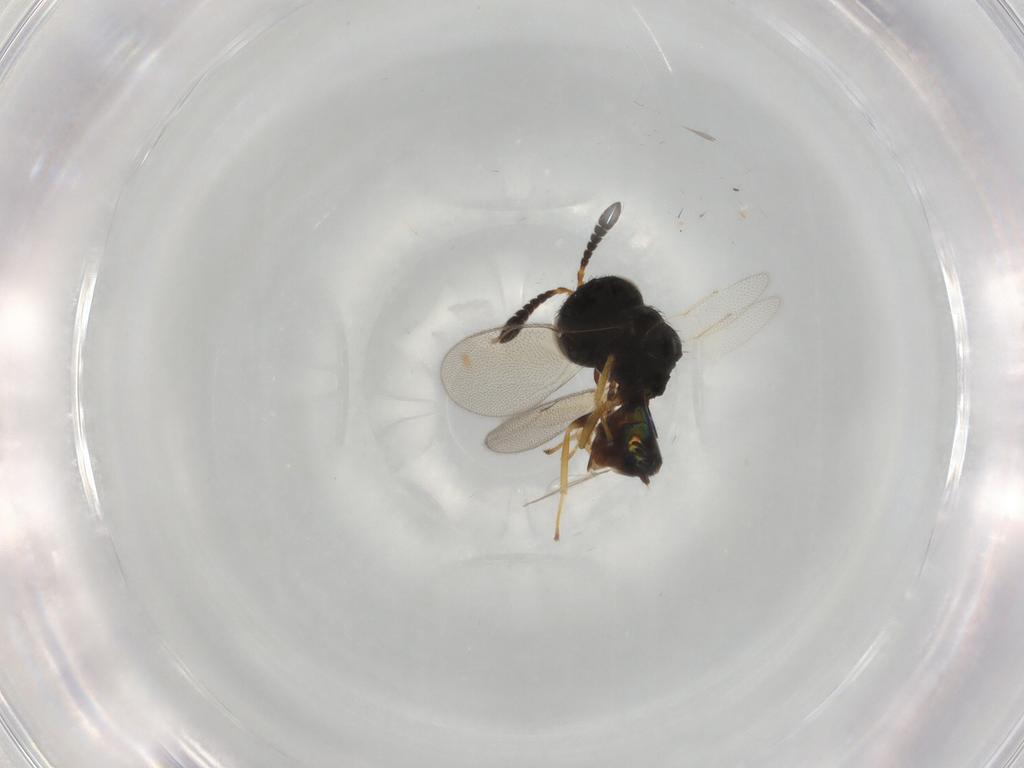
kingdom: Animalia
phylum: Arthropoda
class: Insecta
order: Hymenoptera
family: Pteromalidae
